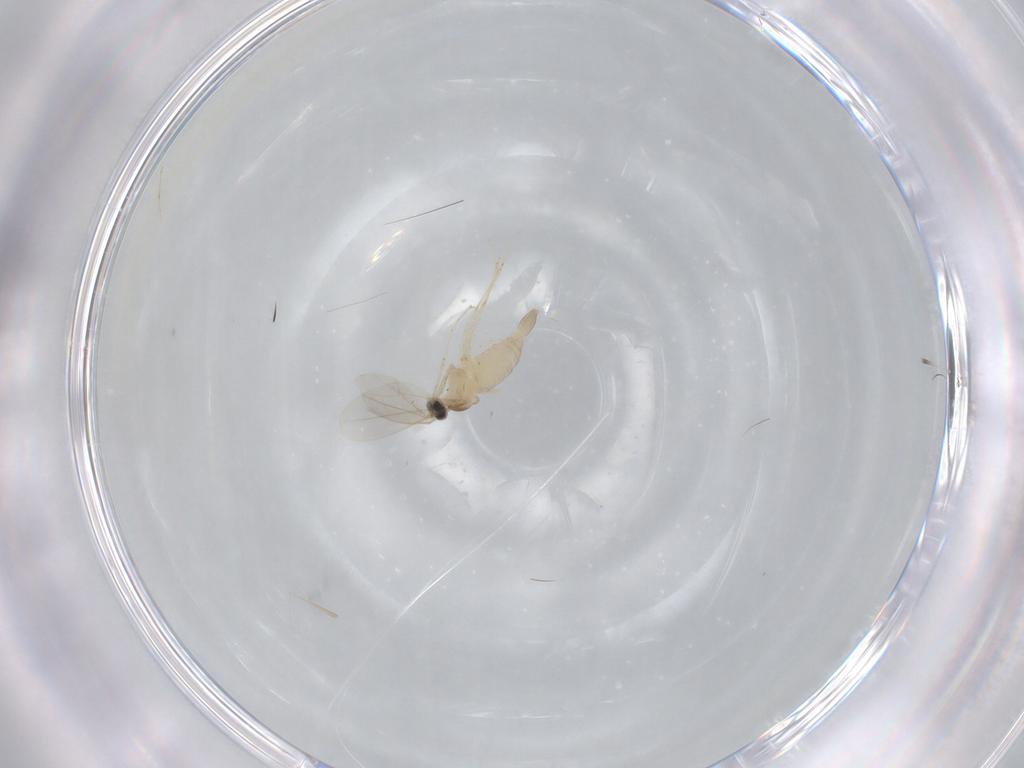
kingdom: Animalia
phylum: Arthropoda
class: Insecta
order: Diptera
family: Cecidomyiidae
